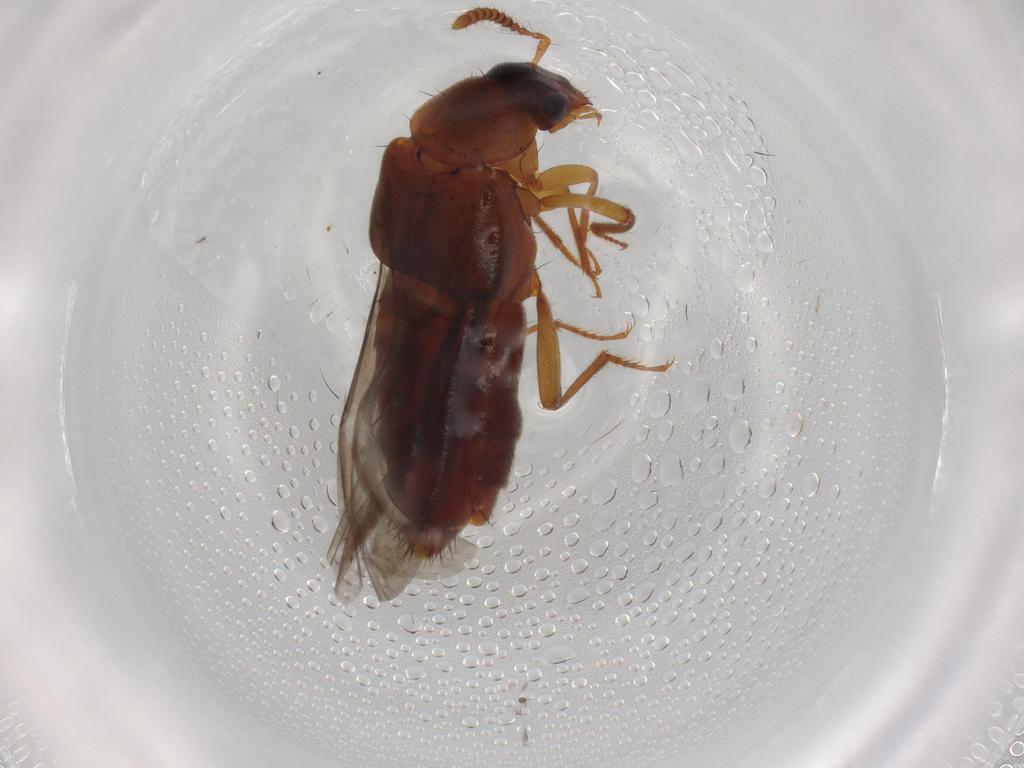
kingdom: Animalia
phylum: Arthropoda
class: Insecta
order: Coleoptera
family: Staphylinidae
